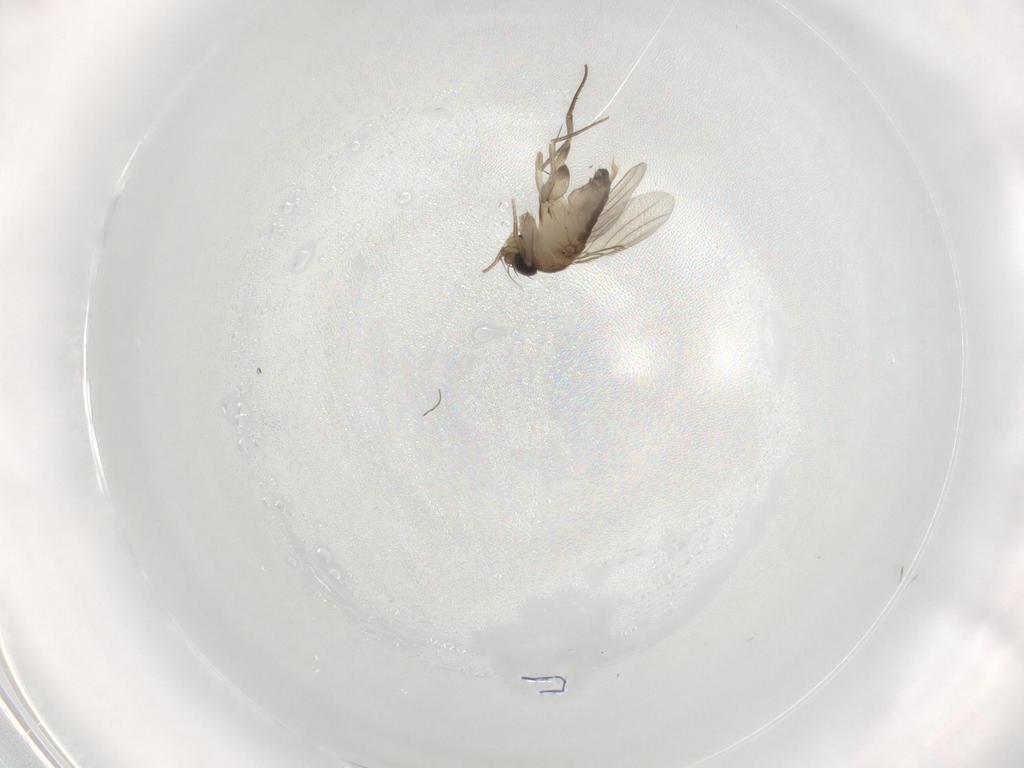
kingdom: Animalia
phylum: Arthropoda
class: Insecta
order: Diptera
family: Phoridae
